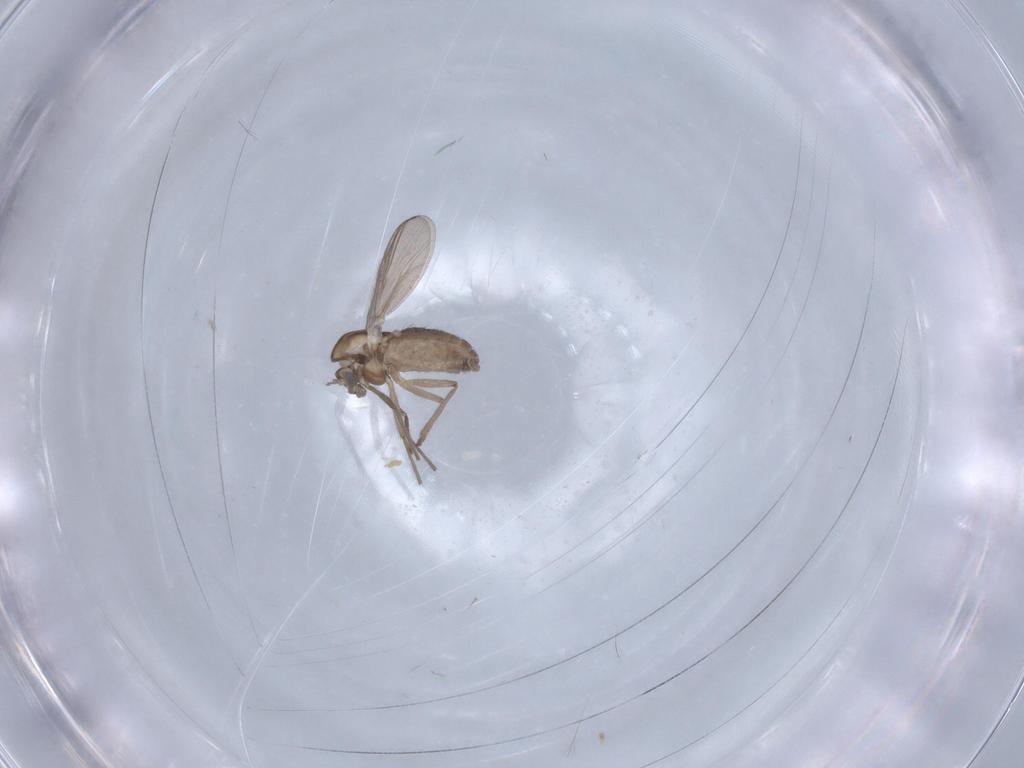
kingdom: Animalia
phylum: Arthropoda
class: Insecta
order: Diptera
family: Chironomidae
